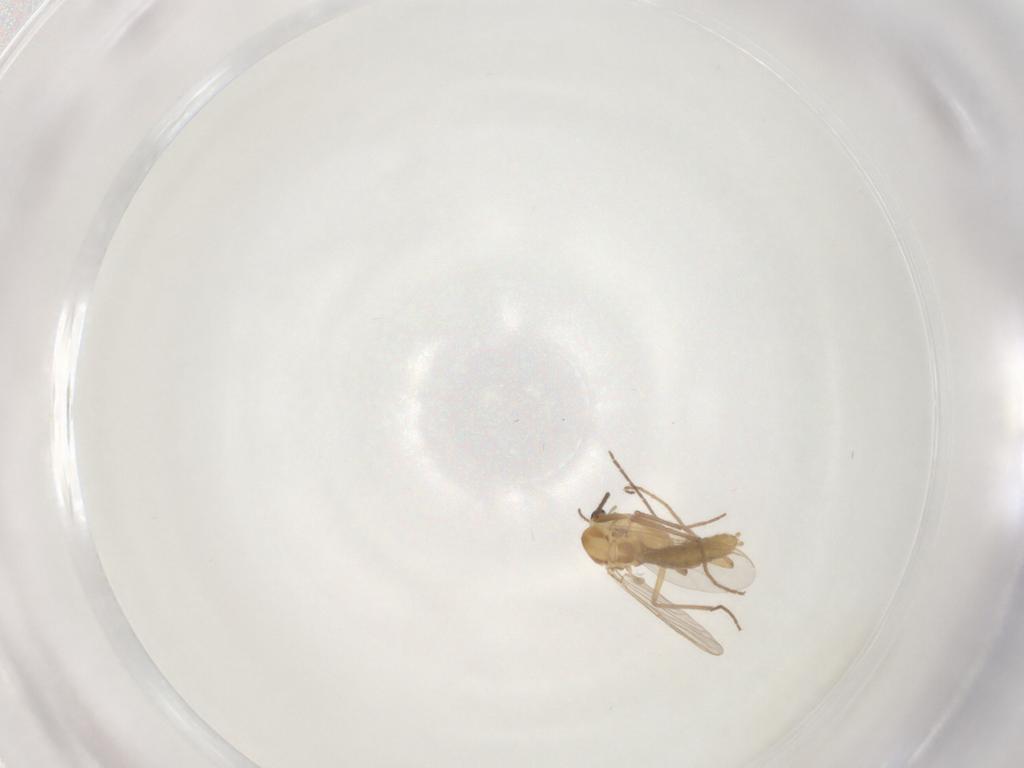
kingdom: Animalia
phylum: Arthropoda
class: Insecta
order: Diptera
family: Chironomidae
